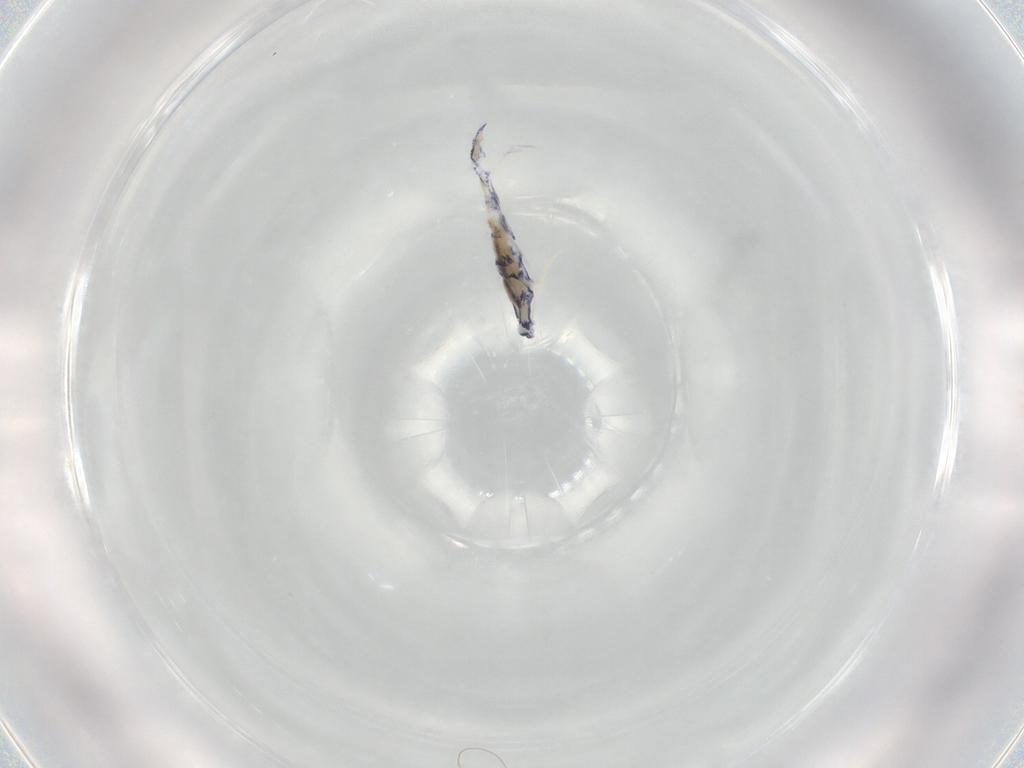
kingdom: Animalia
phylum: Arthropoda
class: Collembola
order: Entomobryomorpha
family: Entomobryidae
